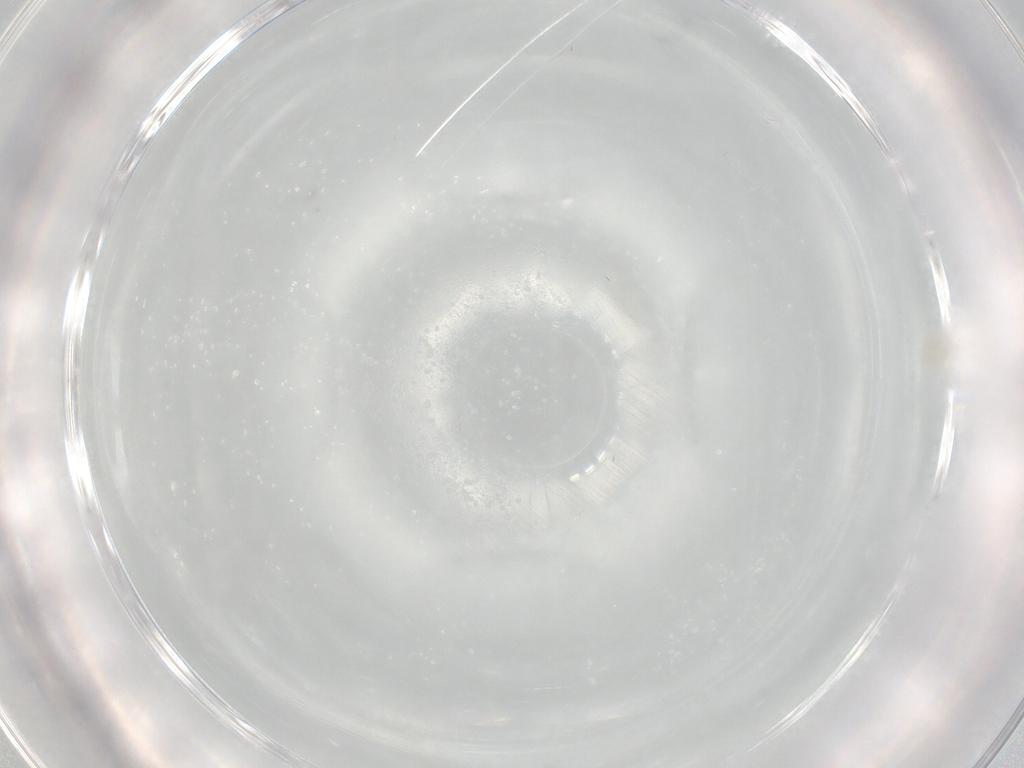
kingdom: Animalia
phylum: Arthropoda
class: Insecta
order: Diptera
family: Chironomidae
